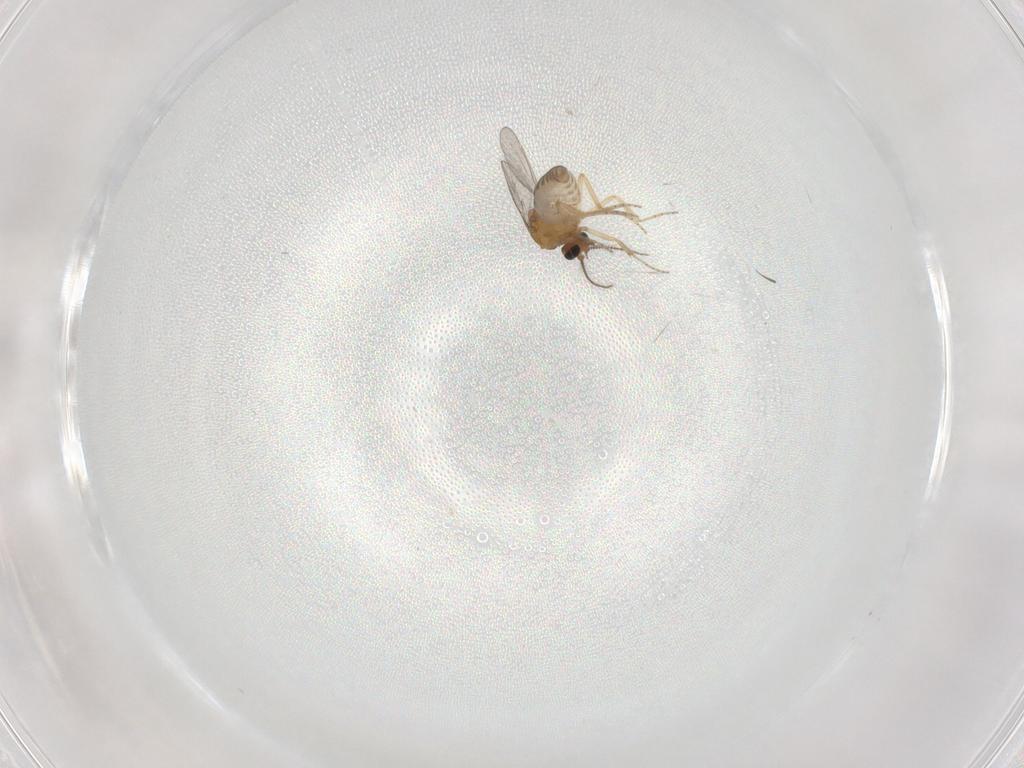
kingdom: Animalia
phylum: Arthropoda
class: Insecta
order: Diptera
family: Ceratopogonidae
